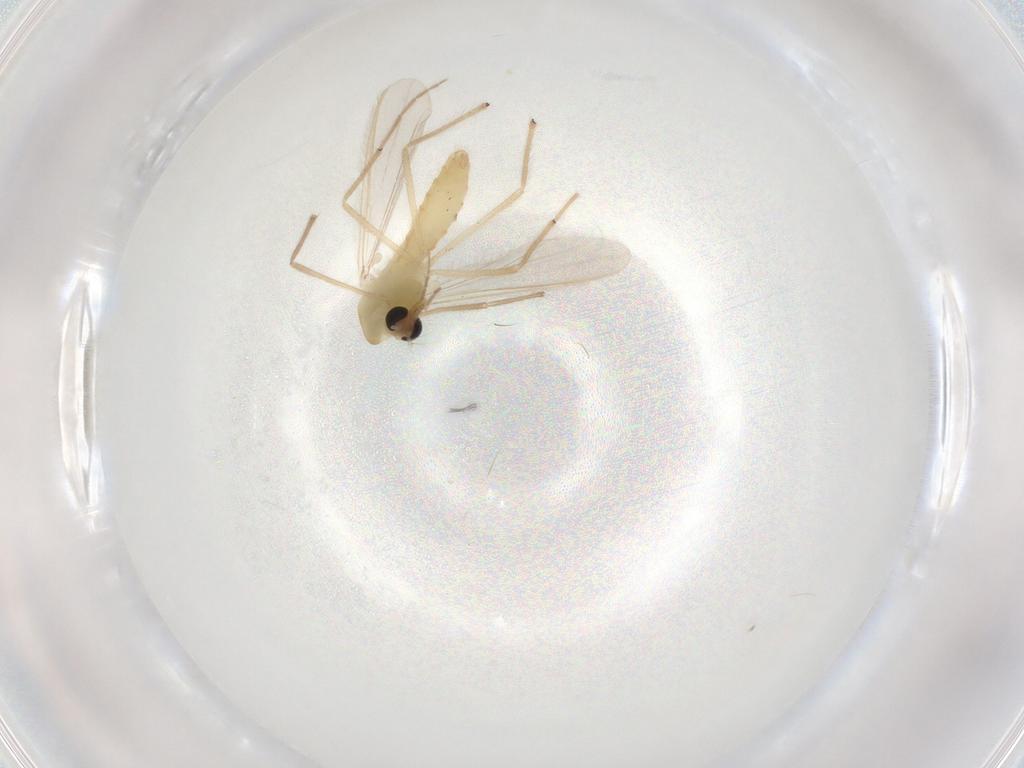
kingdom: Animalia
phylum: Arthropoda
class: Insecta
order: Diptera
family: Chironomidae
